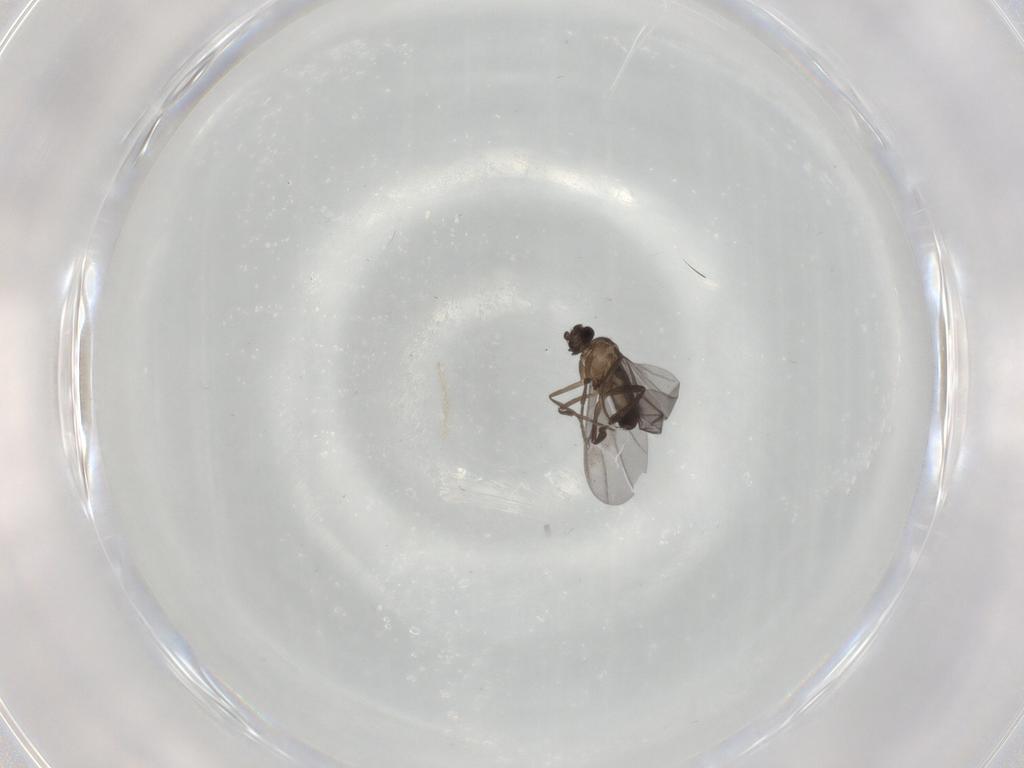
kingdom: Animalia
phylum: Arthropoda
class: Insecta
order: Diptera
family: Phoridae
